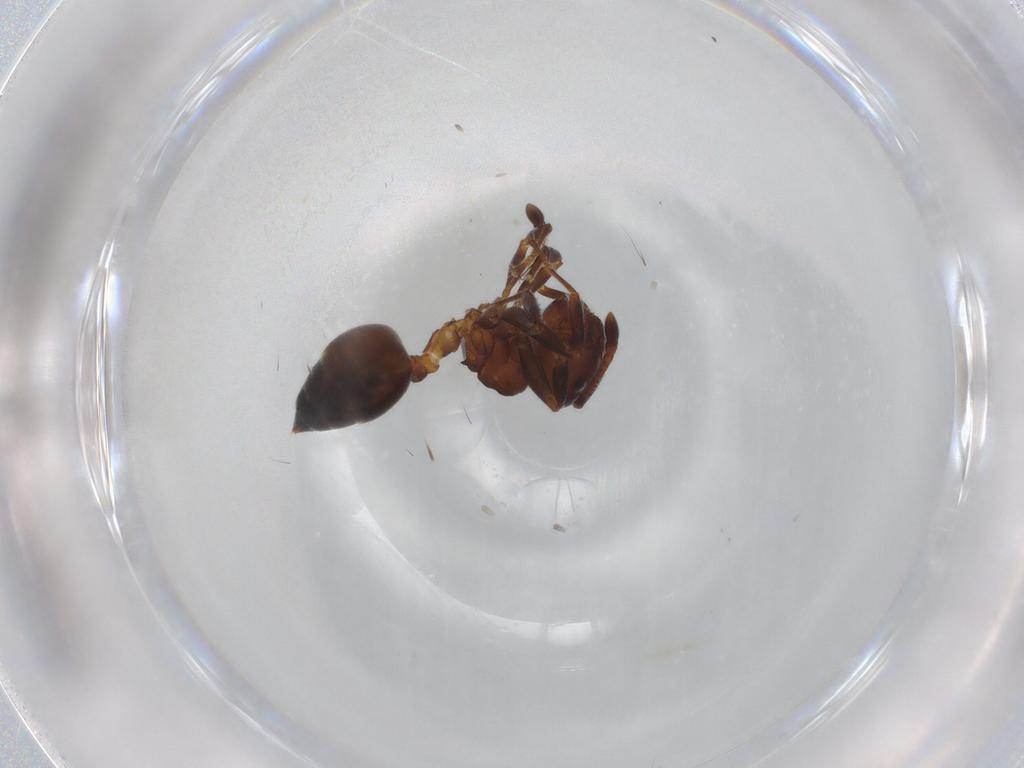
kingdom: Animalia
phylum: Arthropoda
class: Insecta
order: Hymenoptera
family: Formicidae
